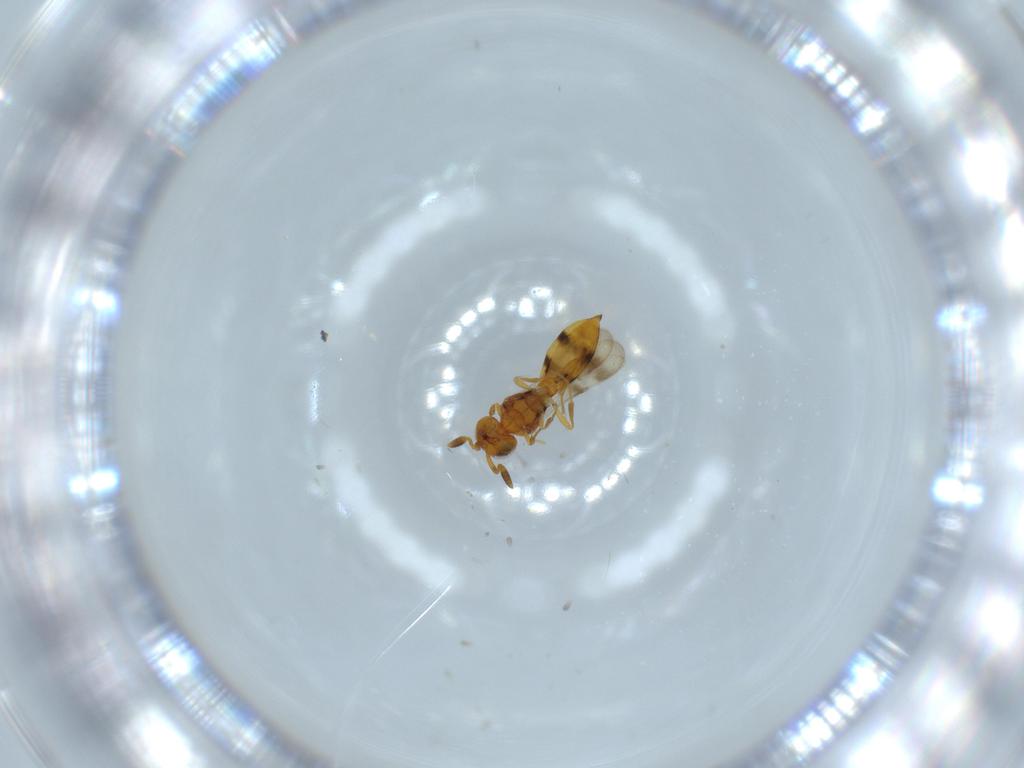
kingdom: Animalia
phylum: Arthropoda
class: Insecta
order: Hymenoptera
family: Scelionidae
